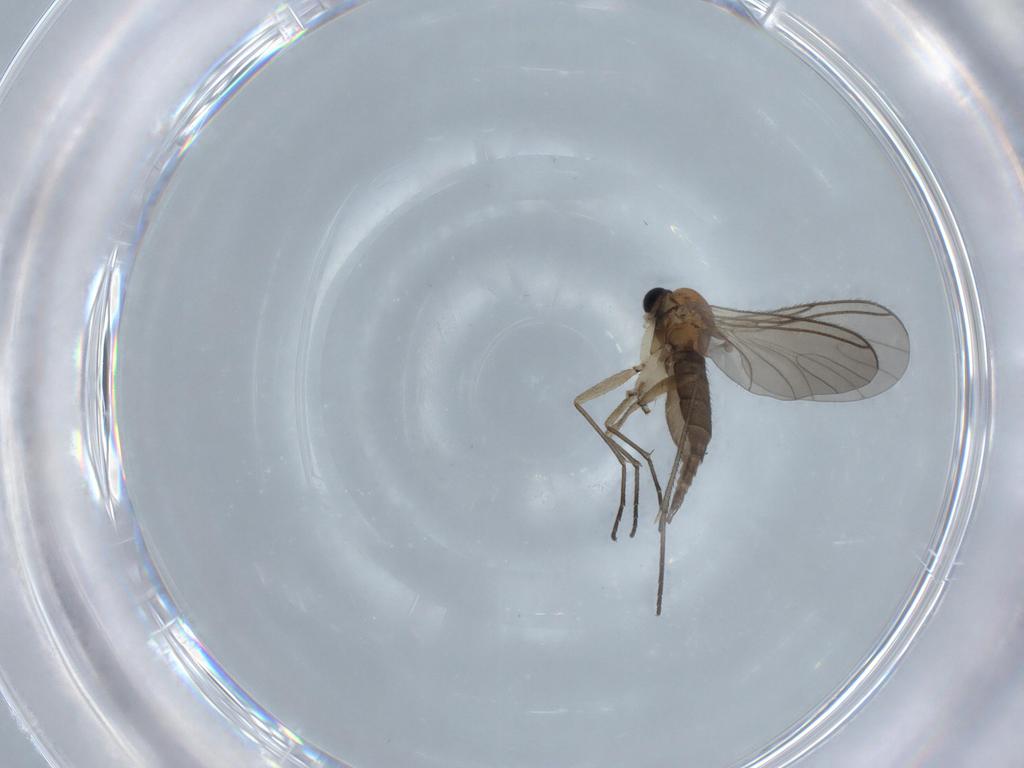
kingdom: Animalia
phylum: Arthropoda
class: Insecta
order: Diptera
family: Sciaridae
